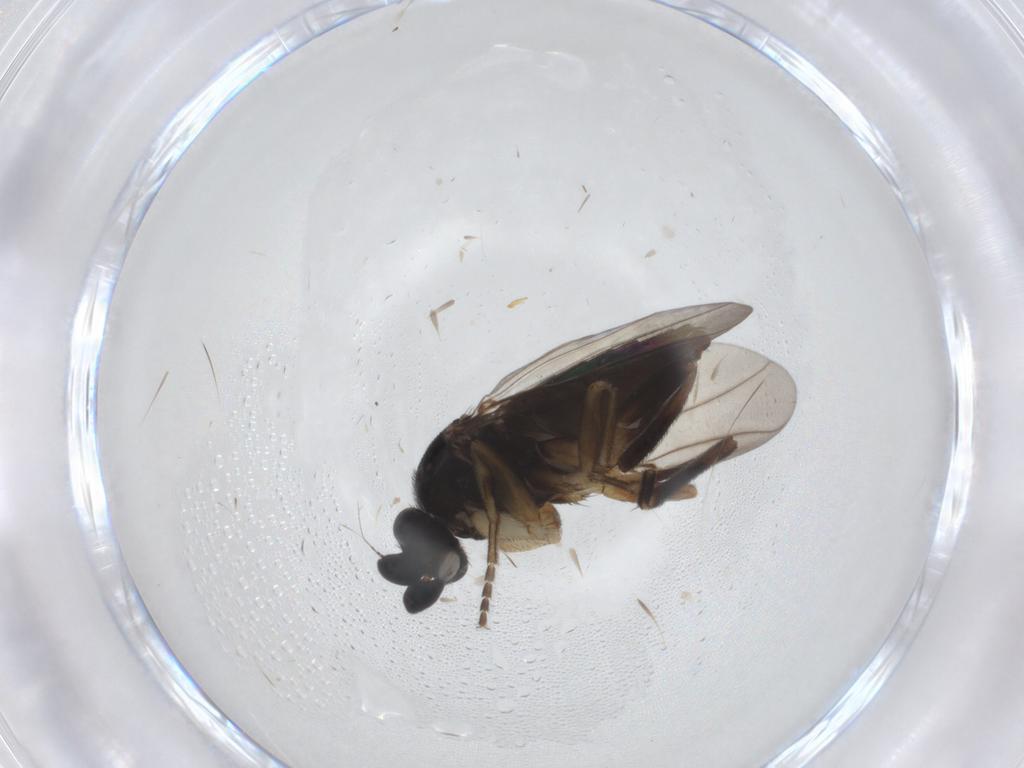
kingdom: Animalia
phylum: Arthropoda
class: Insecta
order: Diptera
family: Phoridae
